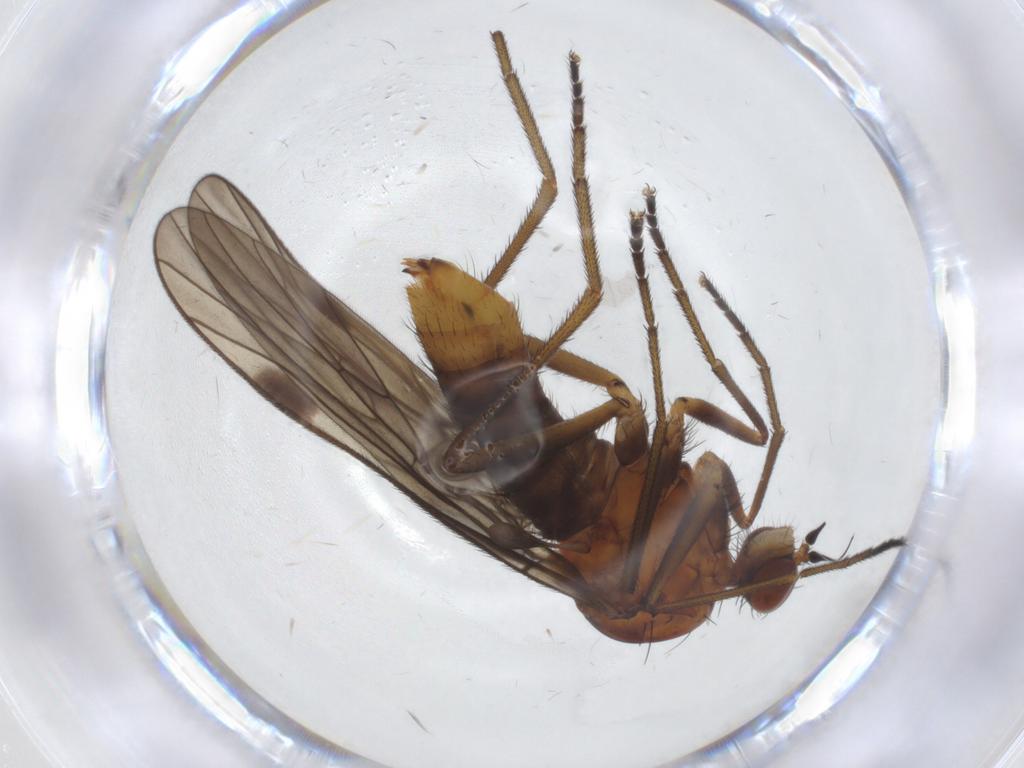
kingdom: Animalia
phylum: Arthropoda
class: Insecta
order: Diptera
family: Empididae
